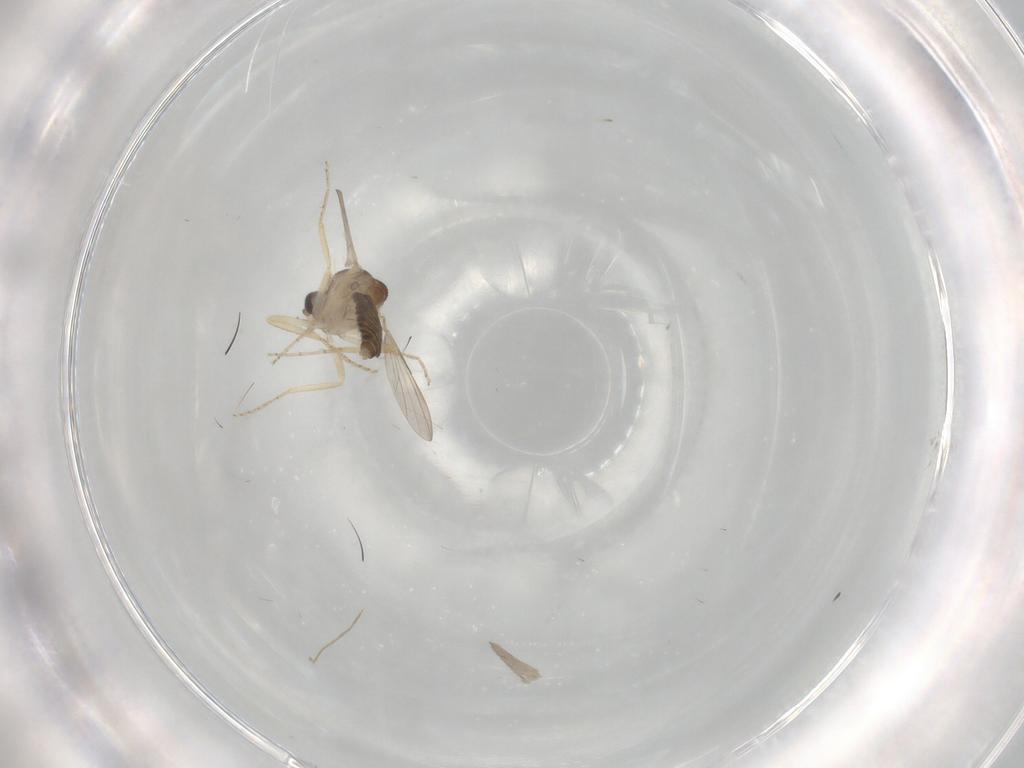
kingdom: Animalia
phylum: Arthropoda
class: Insecta
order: Diptera
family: Ceratopogonidae
